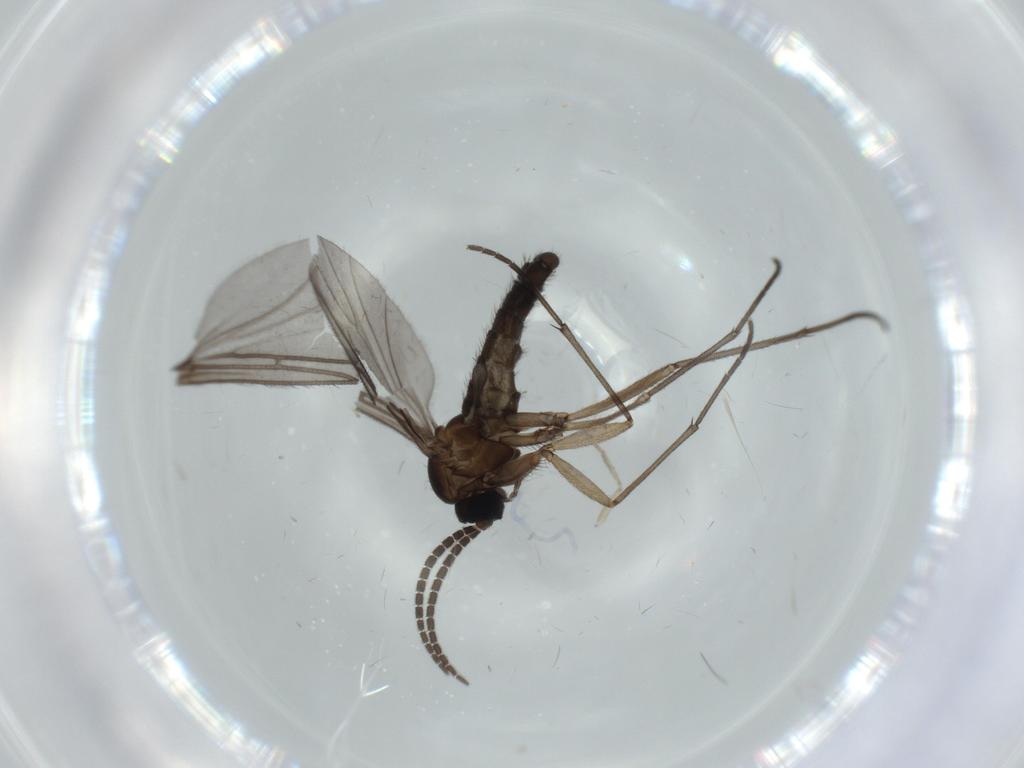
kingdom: Animalia
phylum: Arthropoda
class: Insecta
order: Diptera
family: Sciaridae
